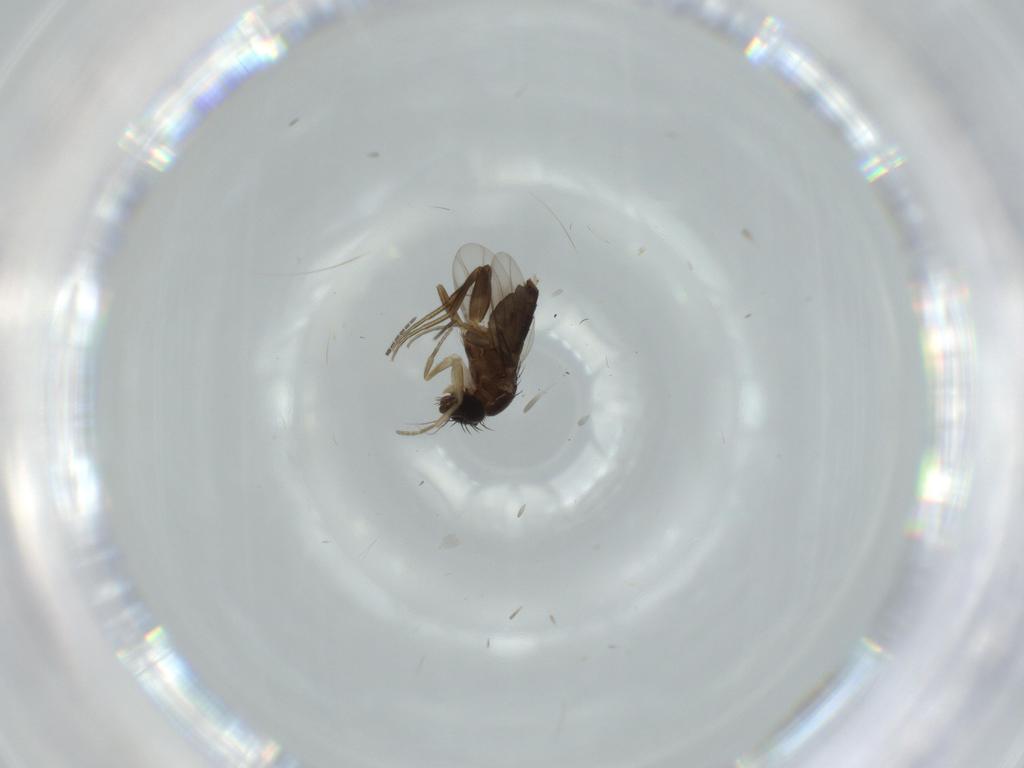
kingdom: Animalia
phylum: Arthropoda
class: Insecta
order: Diptera
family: Phoridae
